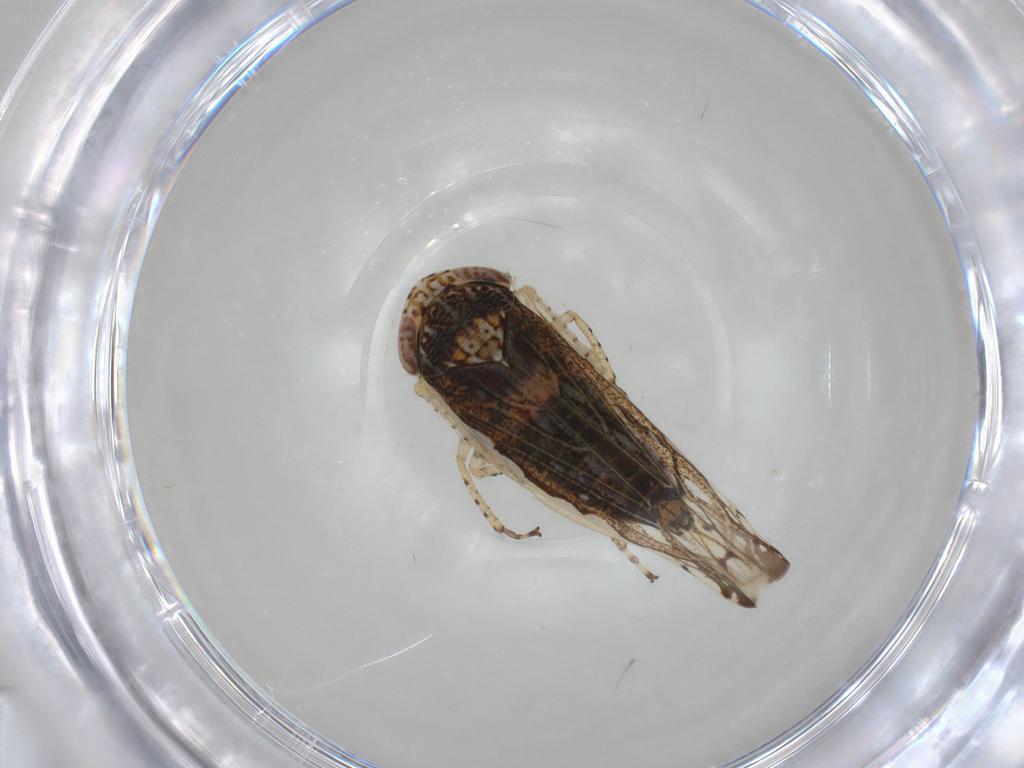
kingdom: Animalia
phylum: Arthropoda
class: Insecta
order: Hemiptera
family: Cicadellidae
